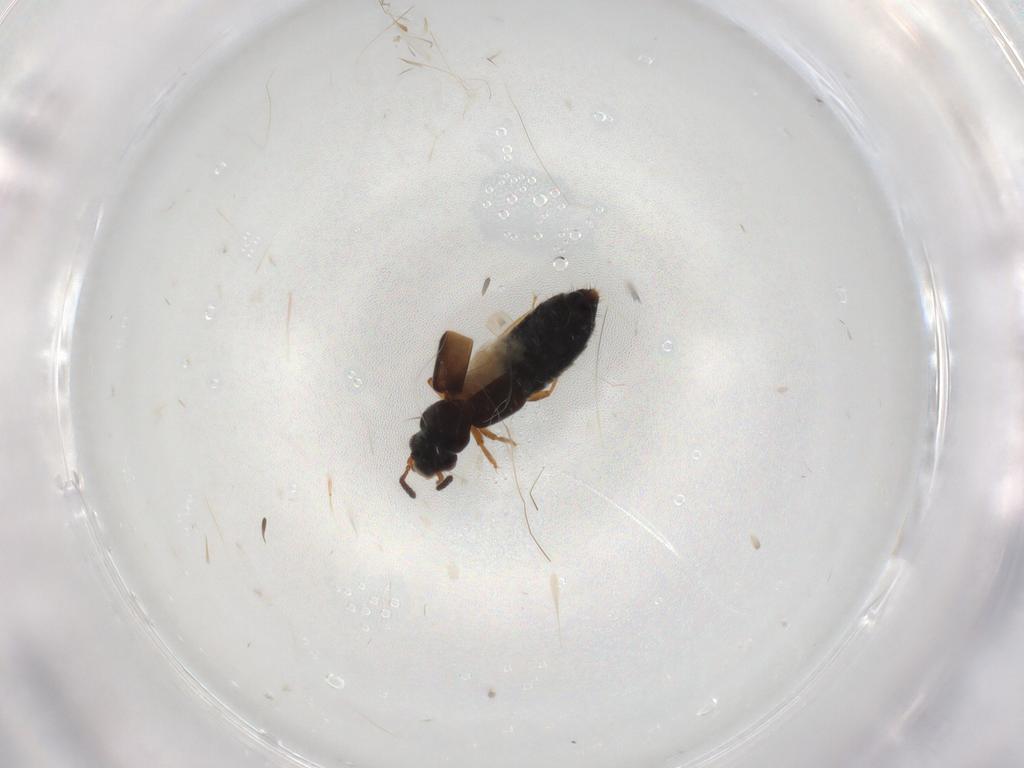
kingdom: Animalia
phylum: Arthropoda
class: Insecta
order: Coleoptera
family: Staphylinidae
